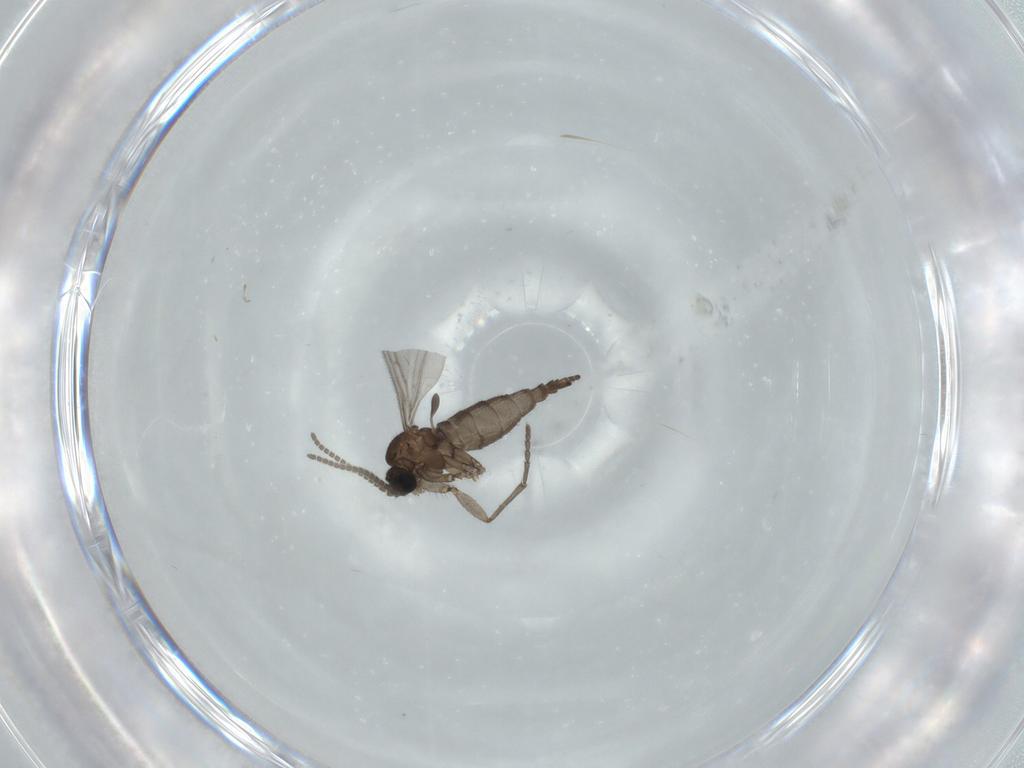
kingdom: Animalia
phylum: Arthropoda
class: Insecta
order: Diptera
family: Sciaridae
